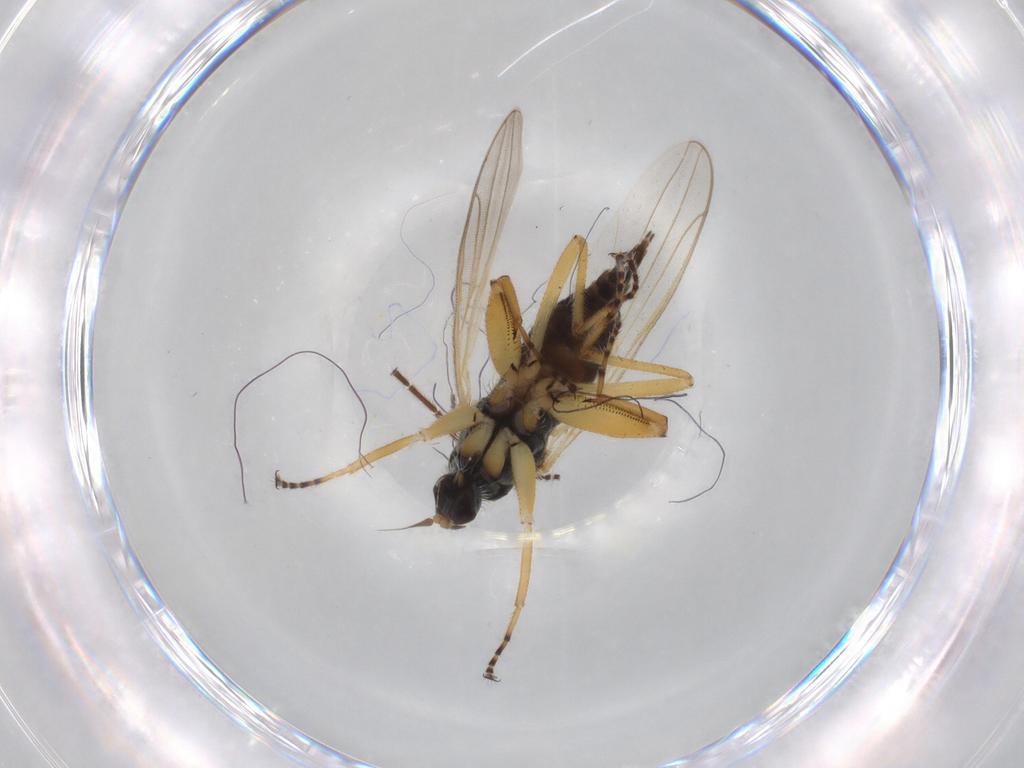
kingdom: Animalia
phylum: Arthropoda
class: Insecta
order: Diptera
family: Hybotidae
